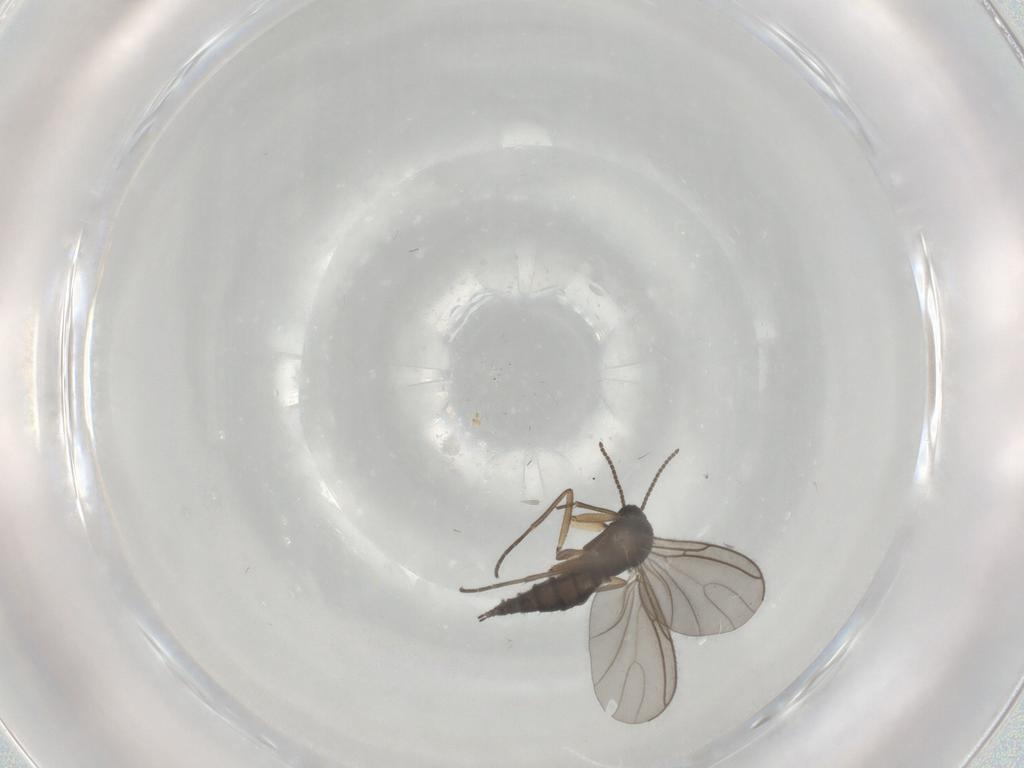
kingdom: Animalia
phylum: Arthropoda
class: Insecta
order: Diptera
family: Sciaridae
